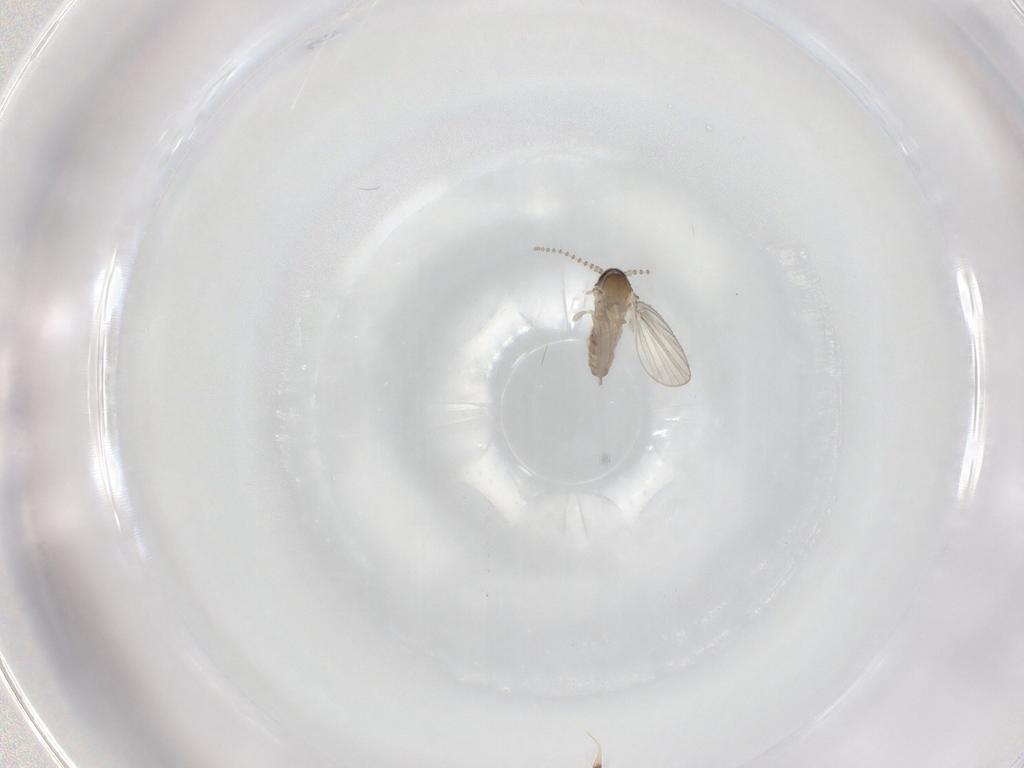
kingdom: Animalia
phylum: Arthropoda
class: Insecta
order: Diptera
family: Psychodidae
